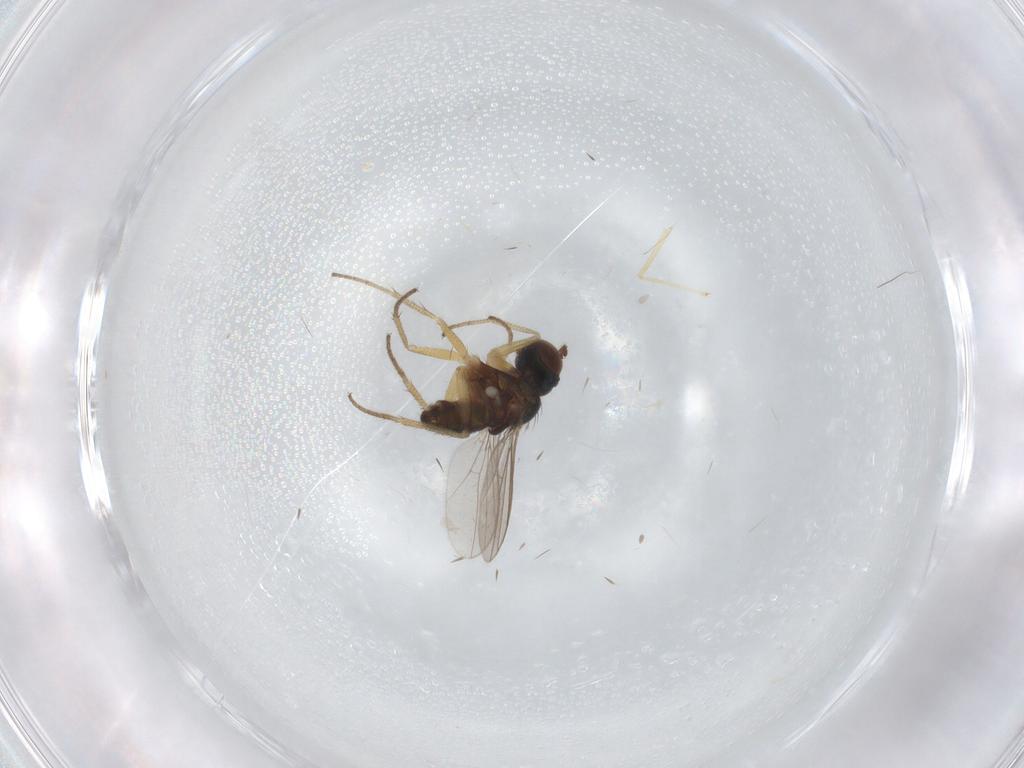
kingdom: Animalia
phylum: Arthropoda
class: Insecta
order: Diptera
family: Chironomidae
